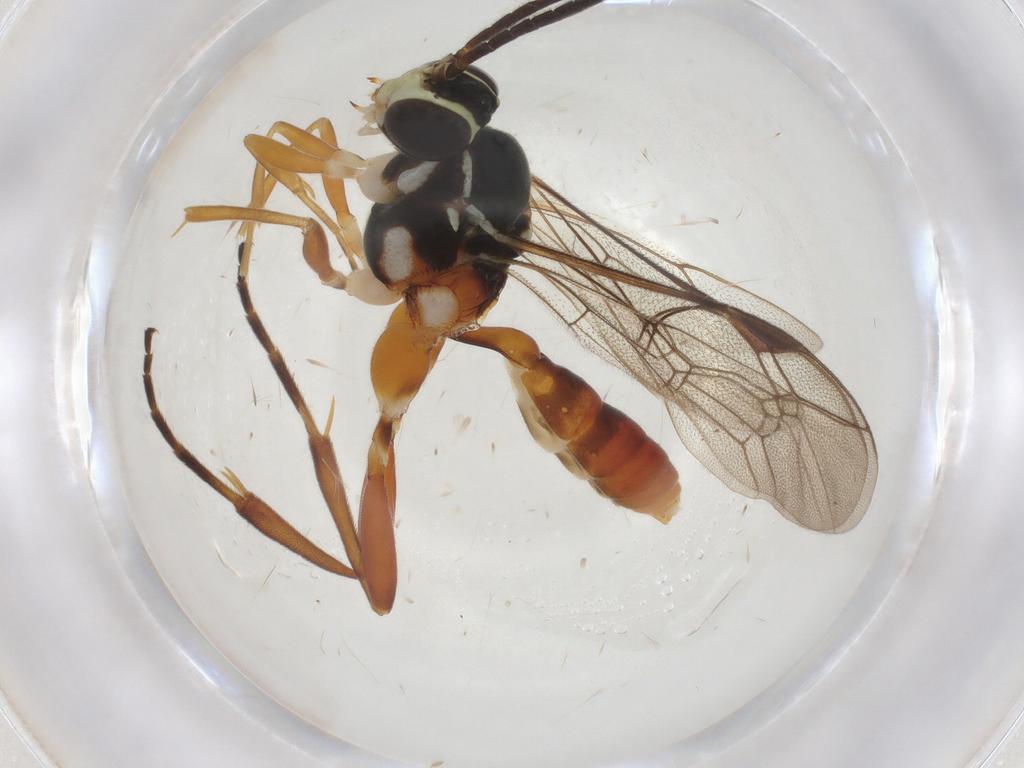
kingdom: Animalia
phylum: Arthropoda
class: Insecta
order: Hymenoptera
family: Ichneumonidae
